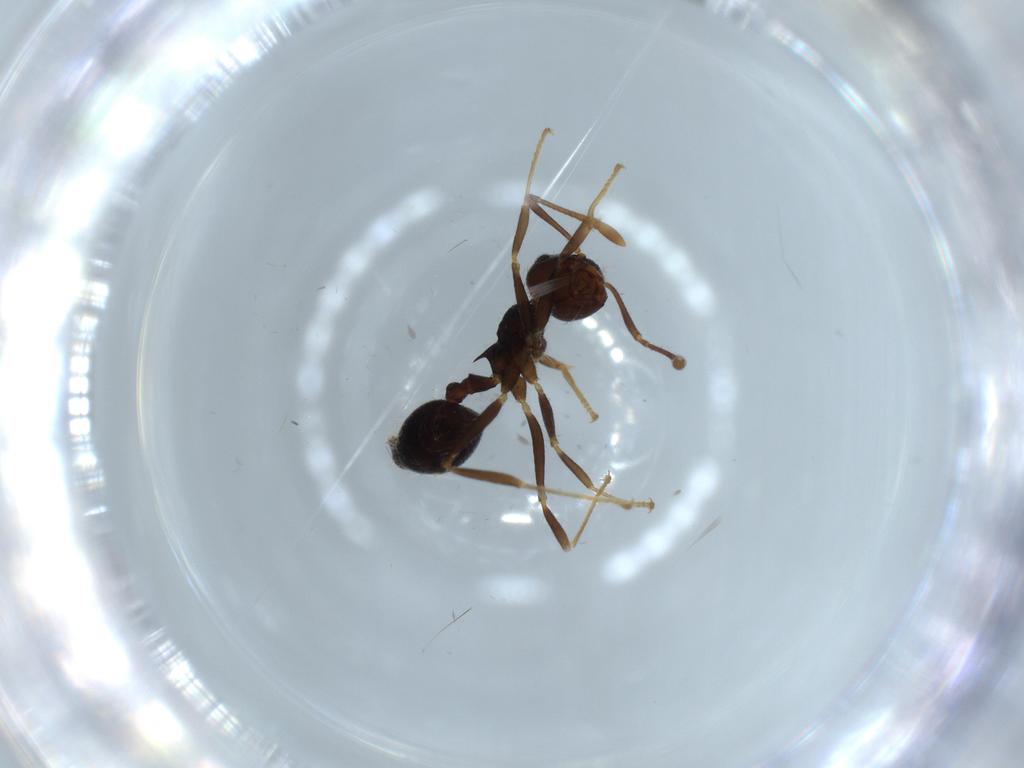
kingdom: Animalia
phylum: Arthropoda
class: Insecta
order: Hymenoptera
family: Formicidae
